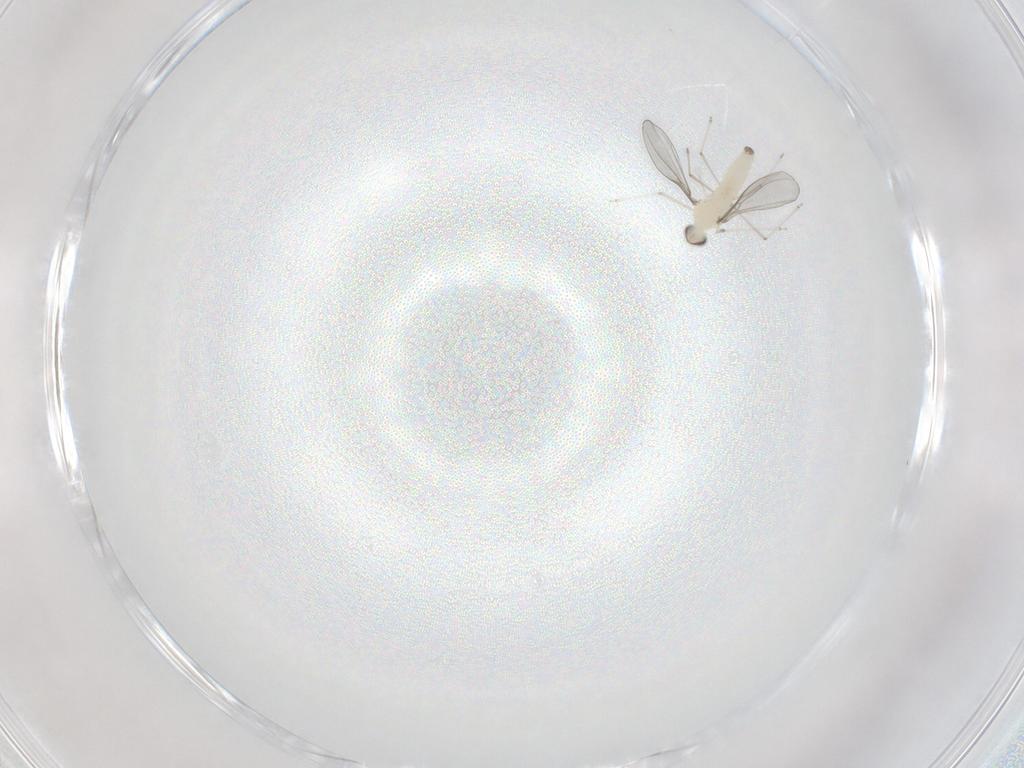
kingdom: Animalia
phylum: Arthropoda
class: Insecta
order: Diptera
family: Cecidomyiidae
